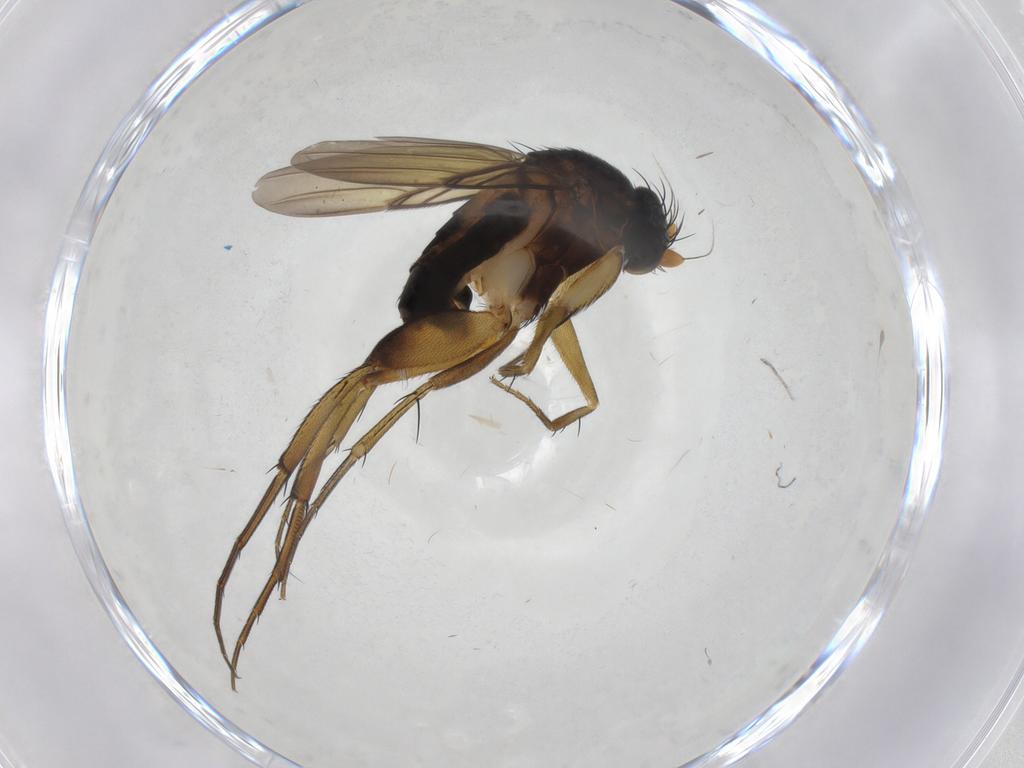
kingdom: Animalia
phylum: Arthropoda
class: Insecta
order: Diptera
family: Phoridae
